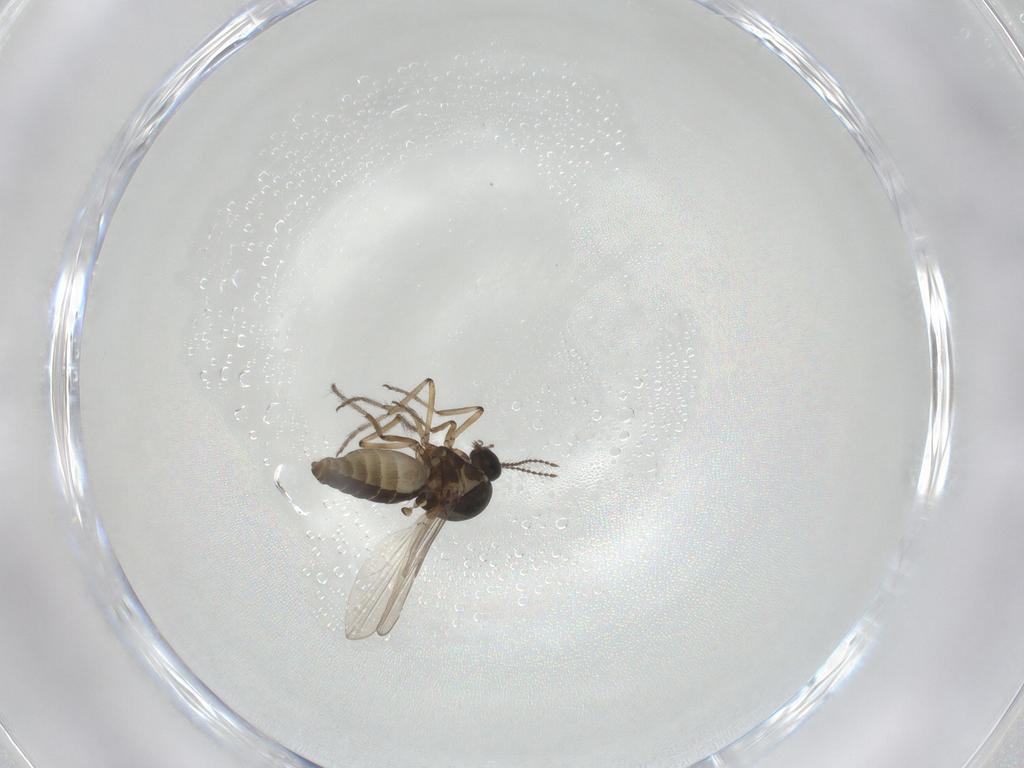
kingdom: Animalia
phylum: Arthropoda
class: Insecta
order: Diptera
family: Ceratopogonidae
